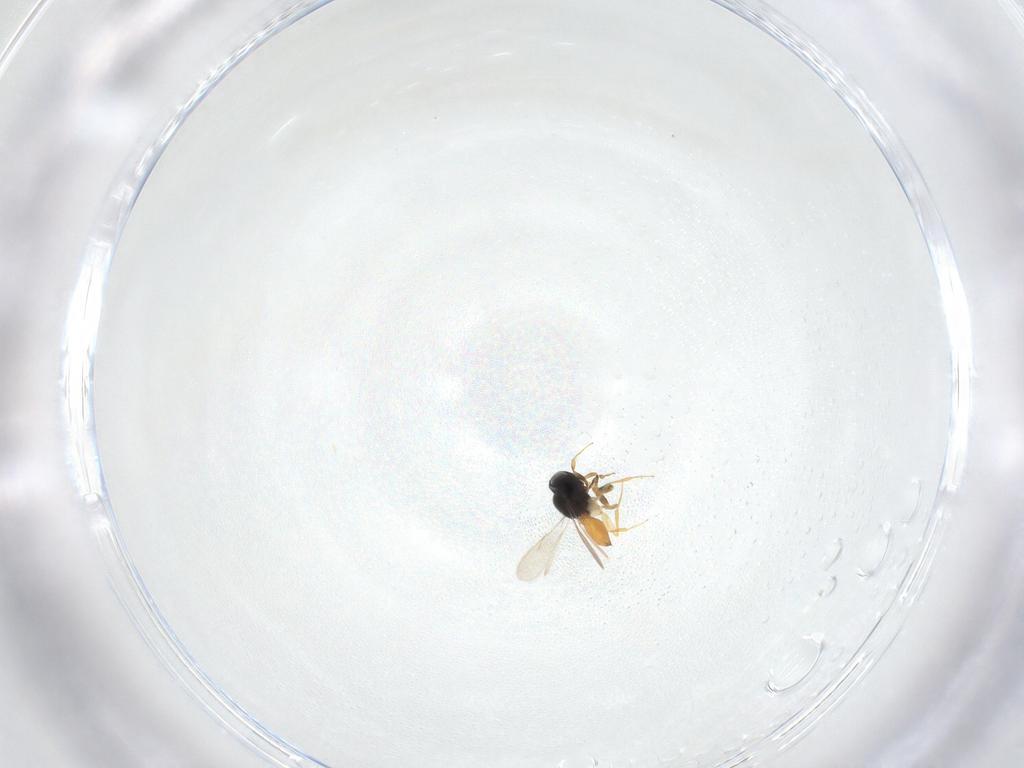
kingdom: Animalia
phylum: Arthropoda
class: Insecta
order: Hymenoptera
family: Scelionidae
